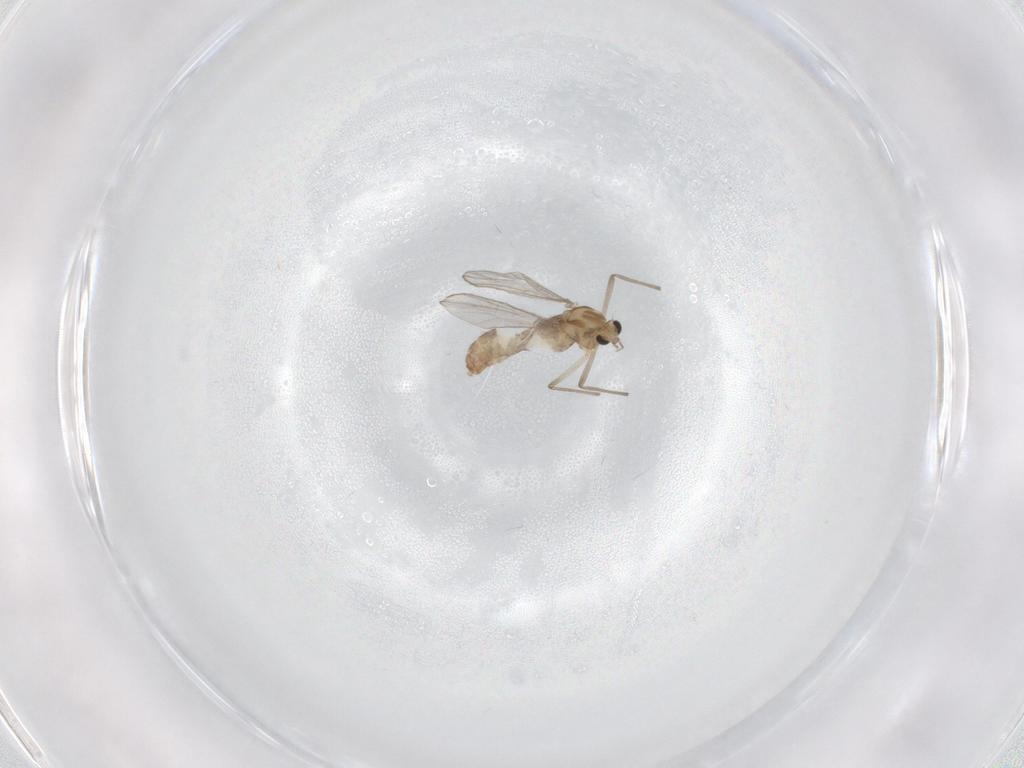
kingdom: Animalia
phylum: Arthropoda
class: Insecta
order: Diptera
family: Chironomidae
